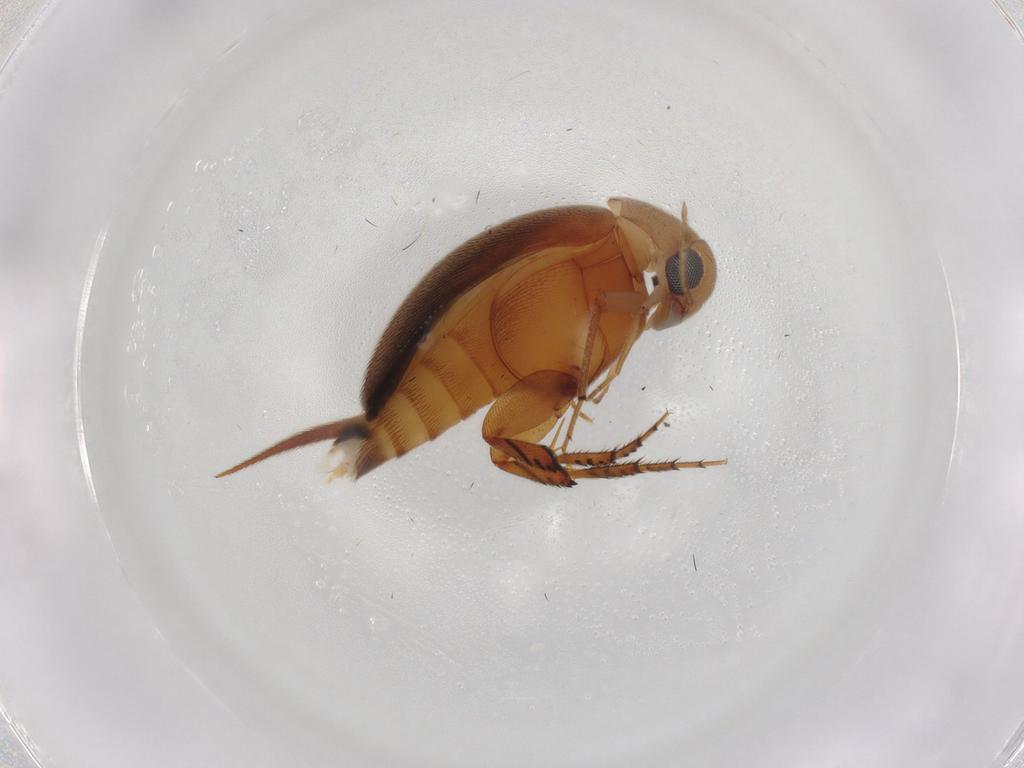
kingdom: Animalia
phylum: Arthropoda
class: Insecta
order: Coleoptera
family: Mordellidae
